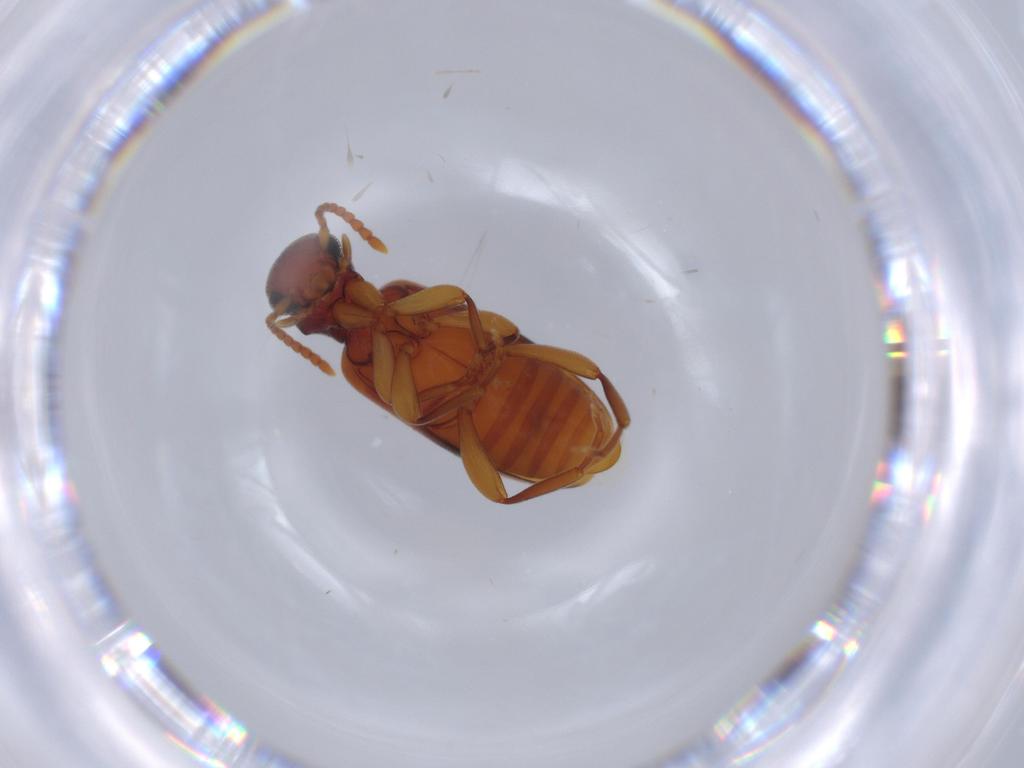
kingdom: Animalia
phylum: Arthropoda
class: Insecta
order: Coleoptera
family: Anthicidae
